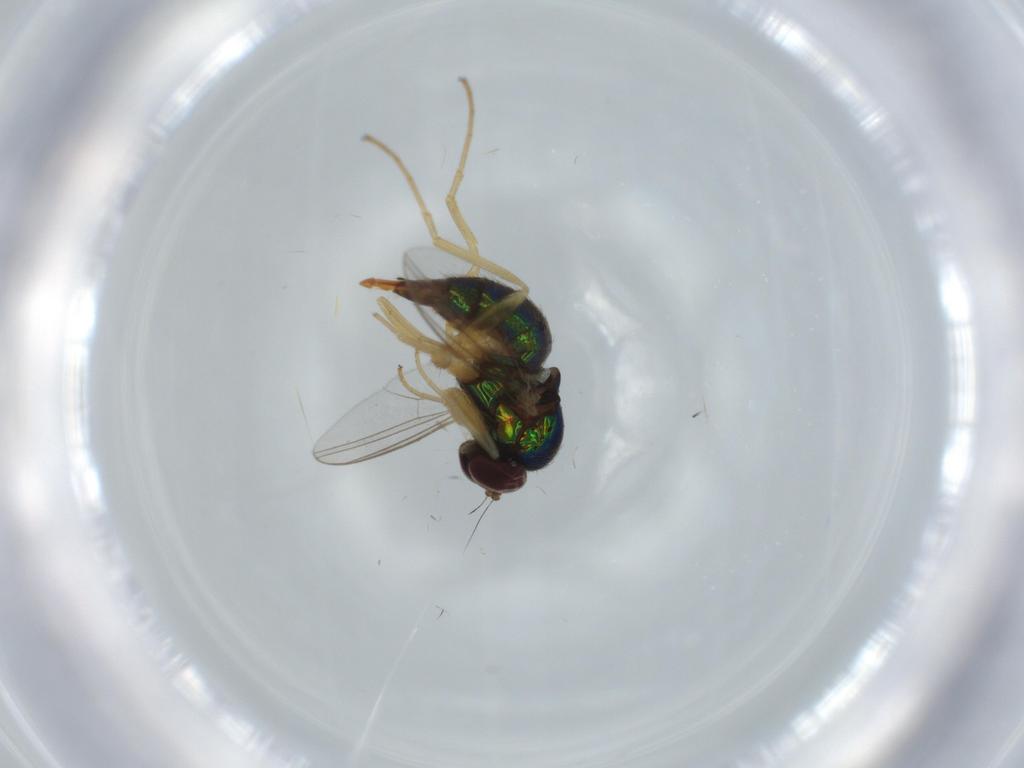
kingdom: Animalia
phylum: Arthropoda
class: Insecta
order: Diptera
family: Dolichopodidae
